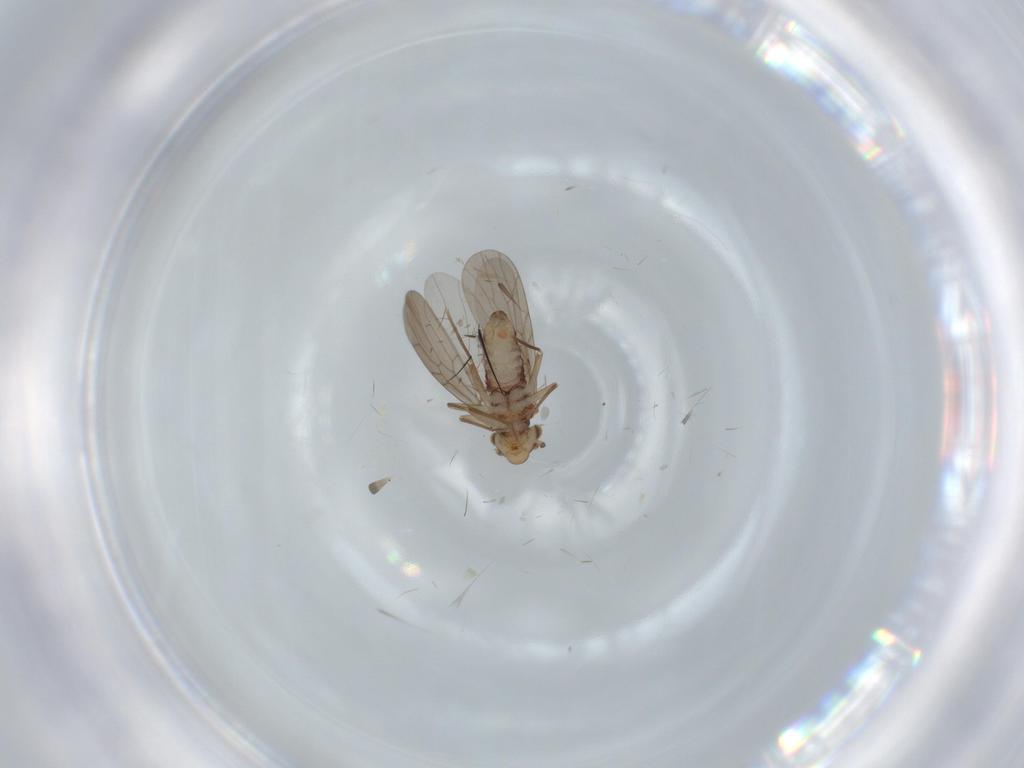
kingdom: Animalia
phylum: Arthropoda
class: Insecta
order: Psocodea
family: Lepidopsocidae
